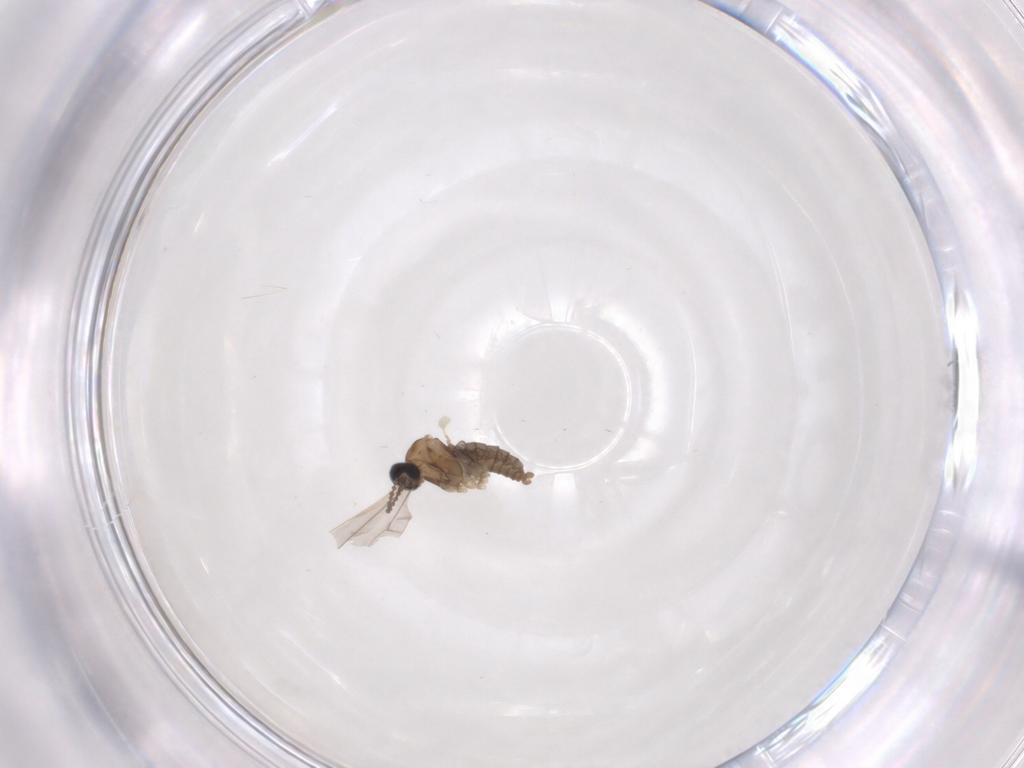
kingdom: Animalia
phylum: Arthropoda
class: Insecta
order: Diptera
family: Cecidomyiidae
